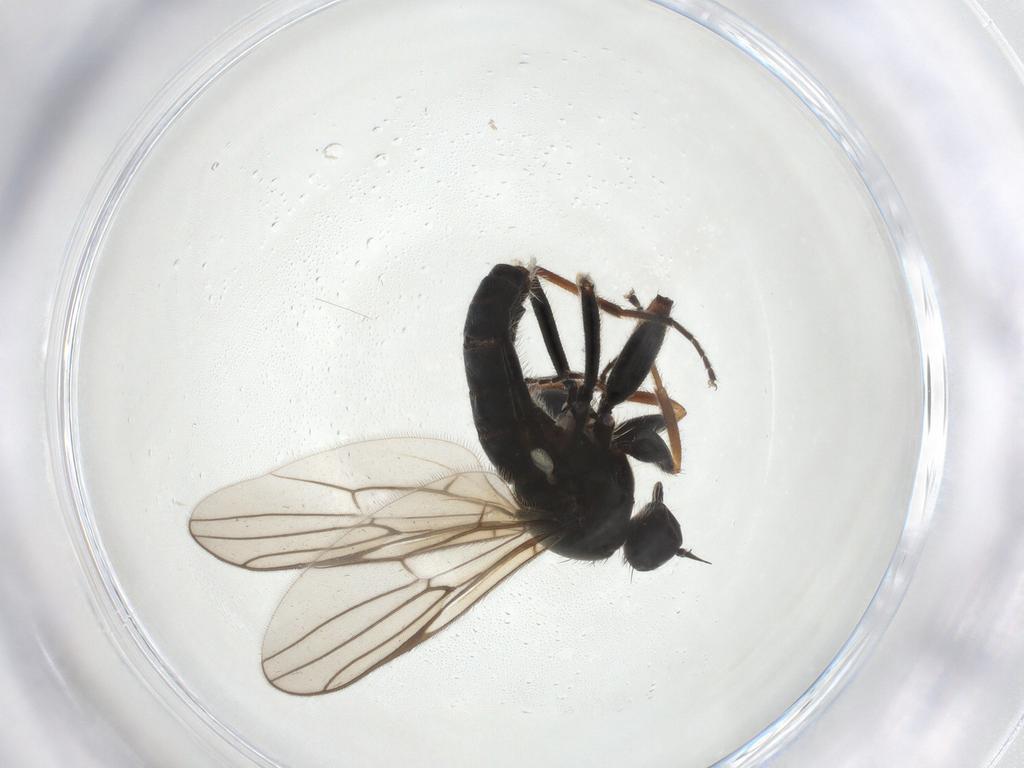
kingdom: Animalia
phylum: Arthropoda
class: Insecta
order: Diptera
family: Hybotidae
